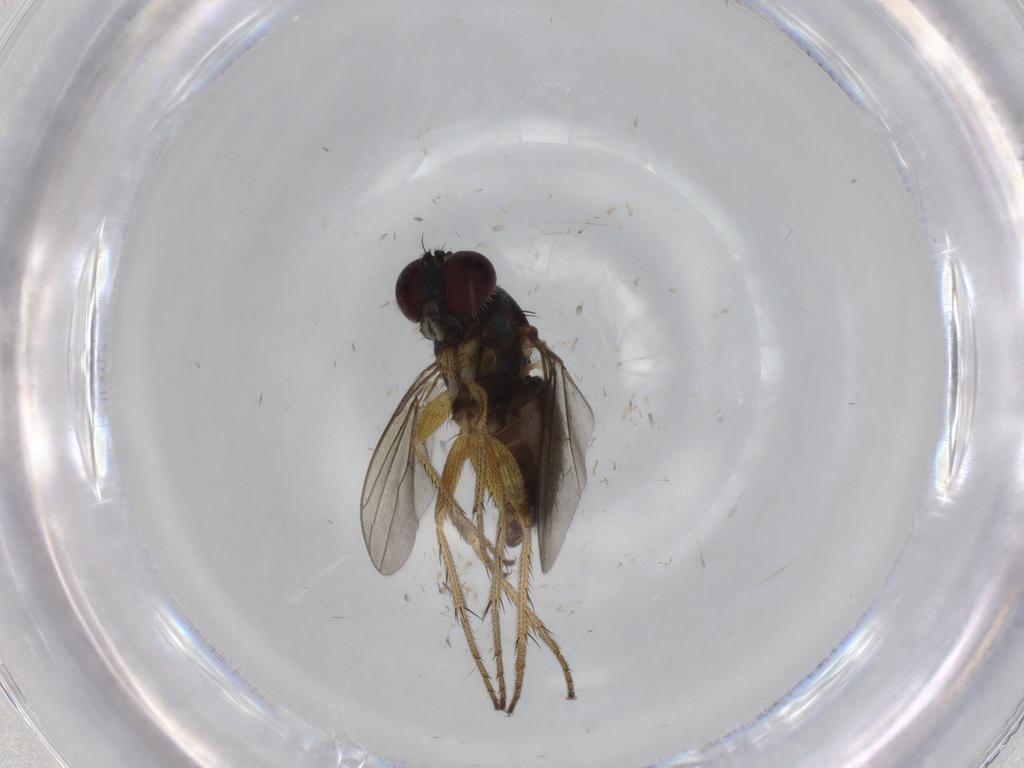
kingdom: Animalia
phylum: Arthropoda
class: Insecta
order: Diptera
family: Dolichopodidae
